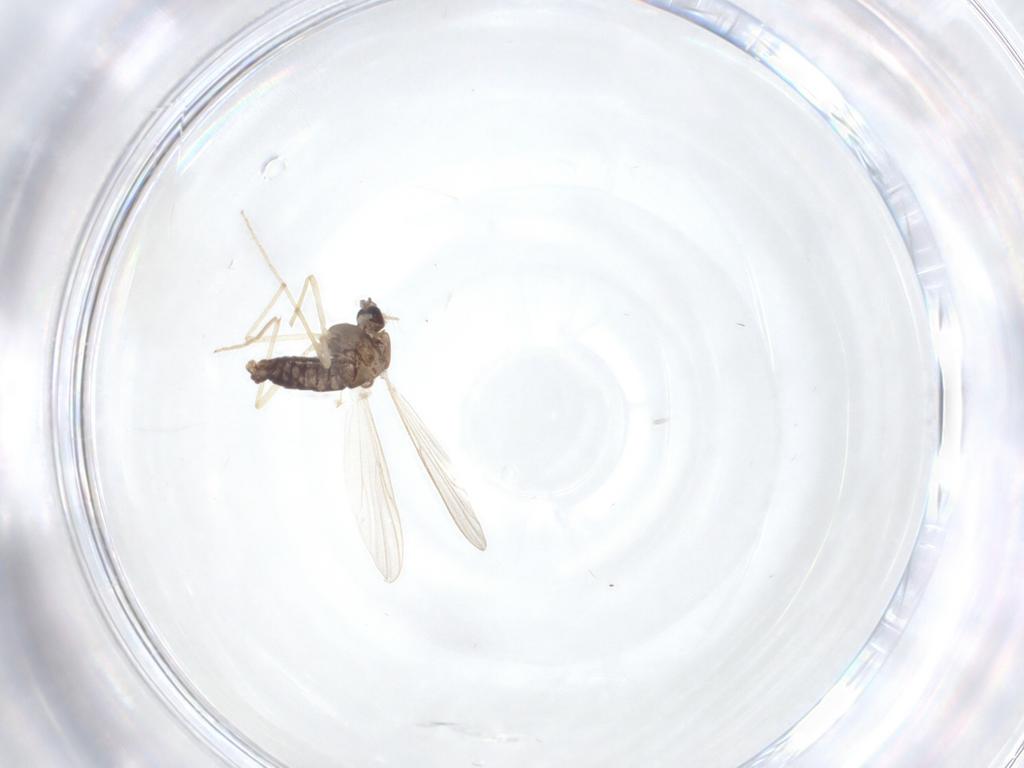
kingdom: Animalia
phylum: Arthropoda
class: Insecta
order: Diptera
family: Chironomidae
